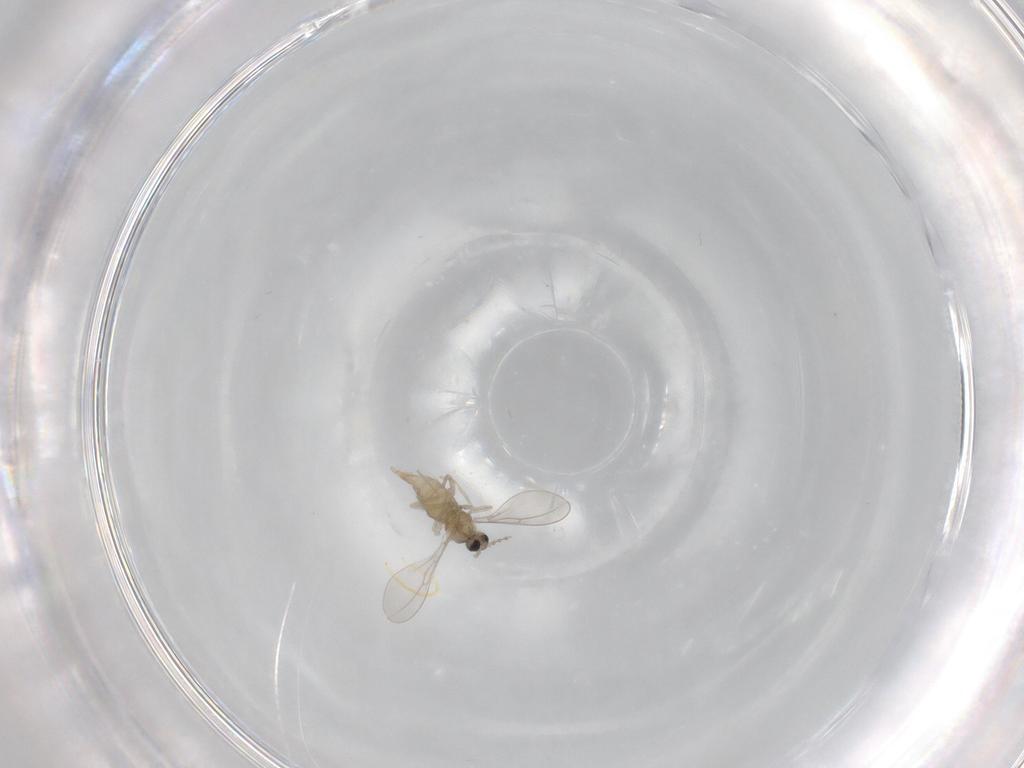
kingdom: Animalia
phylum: Arthropoda
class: Insecta
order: Diptera
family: Cecidomyiidae
